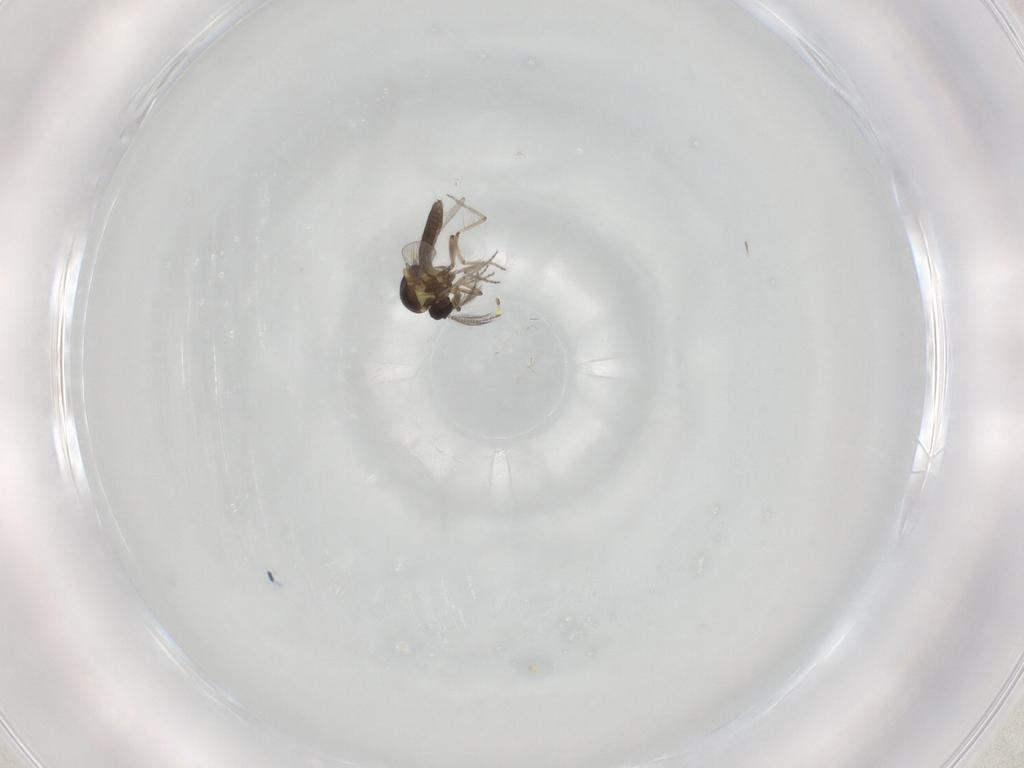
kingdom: Animalia
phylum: Arthropoda
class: Insecta
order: Diptera
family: Ceratopogonidae
